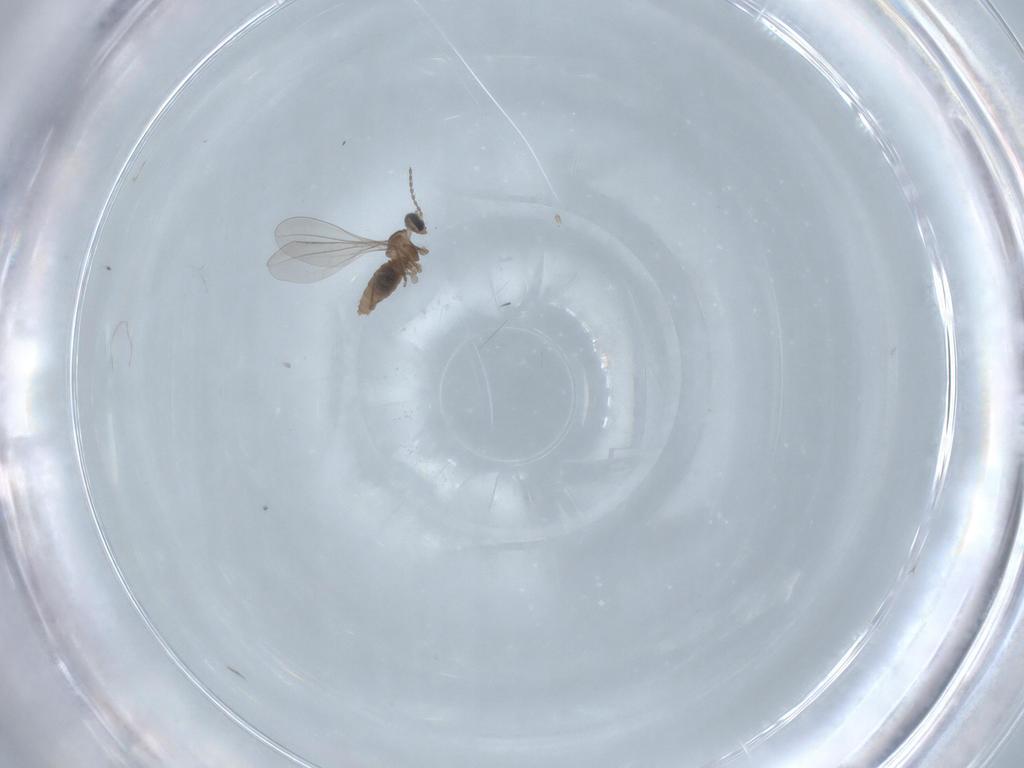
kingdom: Animalia
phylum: Arthropoda
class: Insecta
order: Diptera
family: Cecidomyiidae
